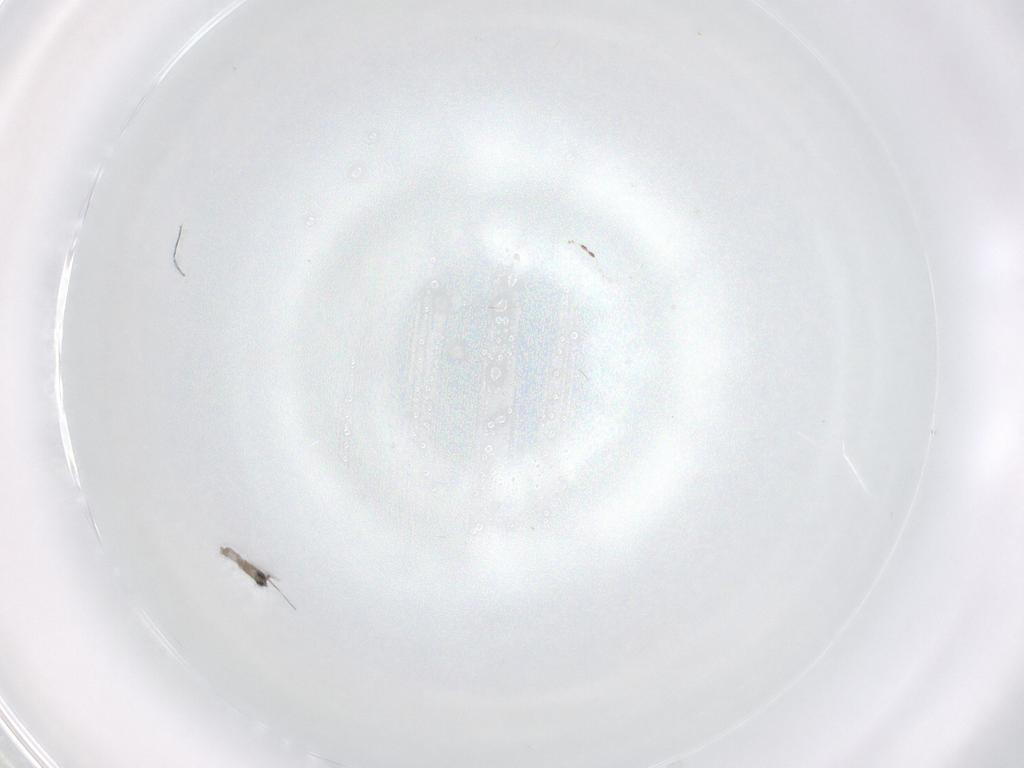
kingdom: Animalia
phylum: Arthropoda
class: Insecta
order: Diptera
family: Cecidomyiidae
